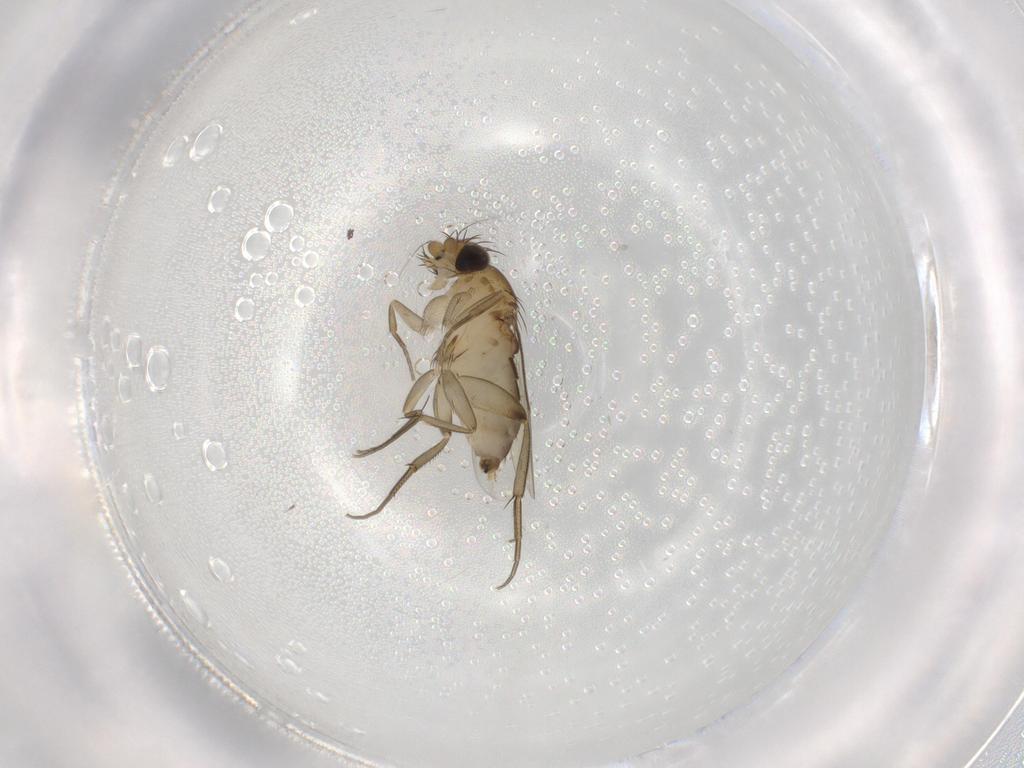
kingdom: Animalia
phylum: Arthropoda
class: Insecta
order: Diptera
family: Phoridae
